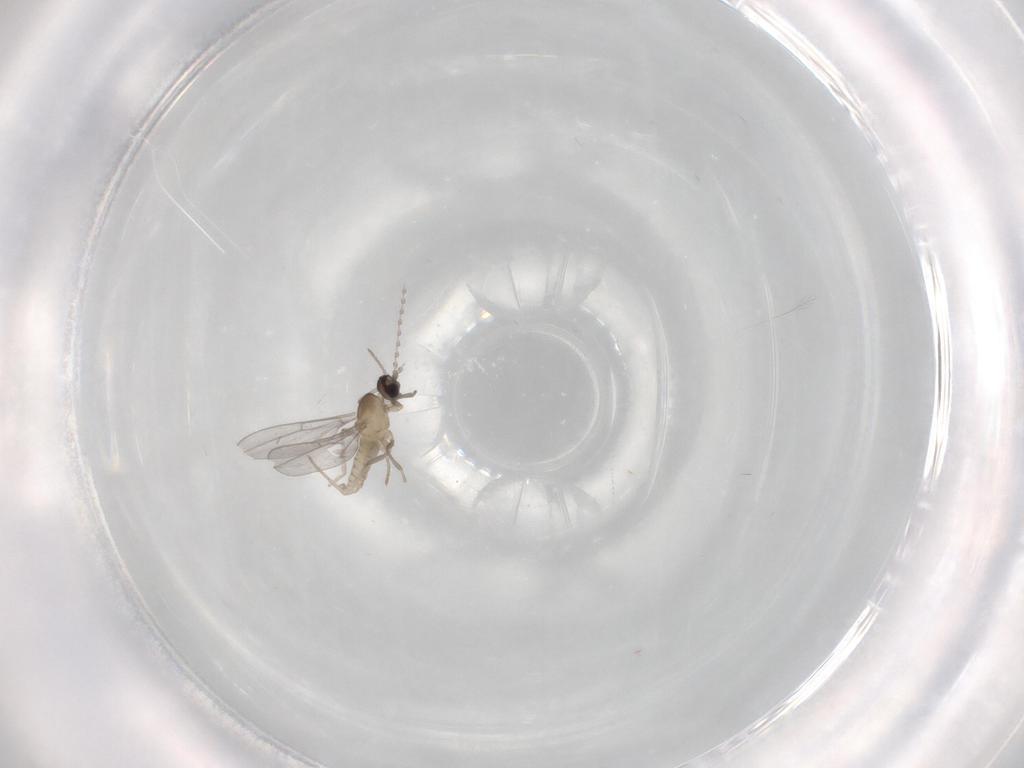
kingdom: Animalia
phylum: Arthropoda
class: Insecta
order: Diptera
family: Cecidomyiidae
